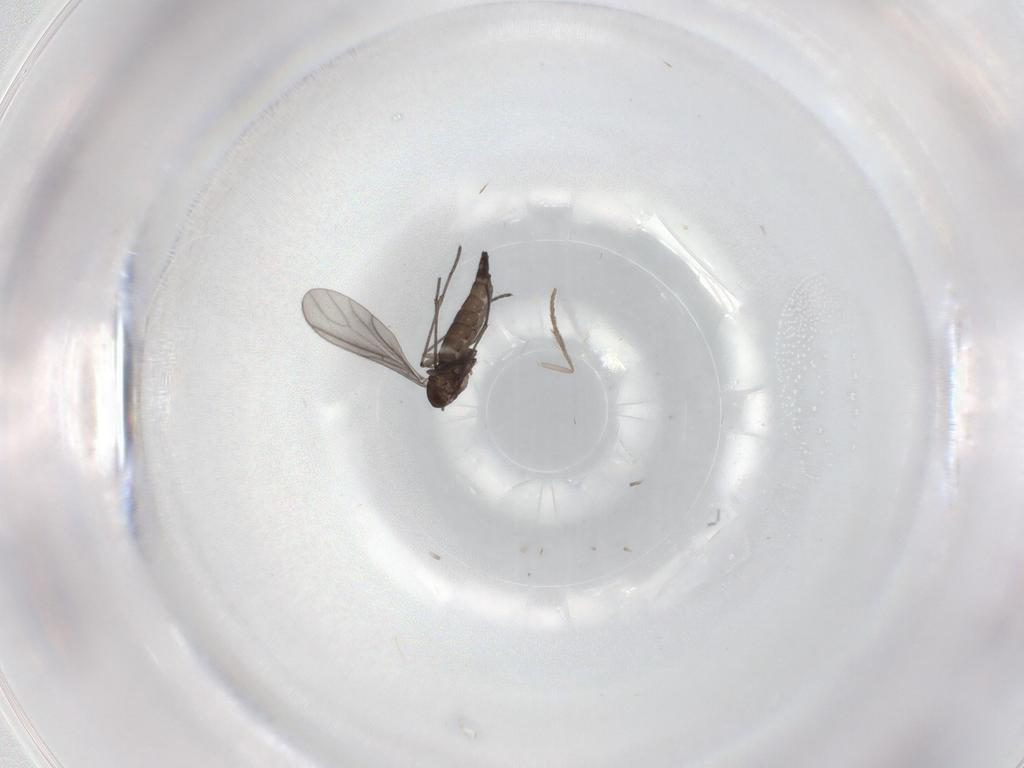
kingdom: Animalia
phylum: Arthropoda
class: Insecta
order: Diptera
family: Sciaridae
